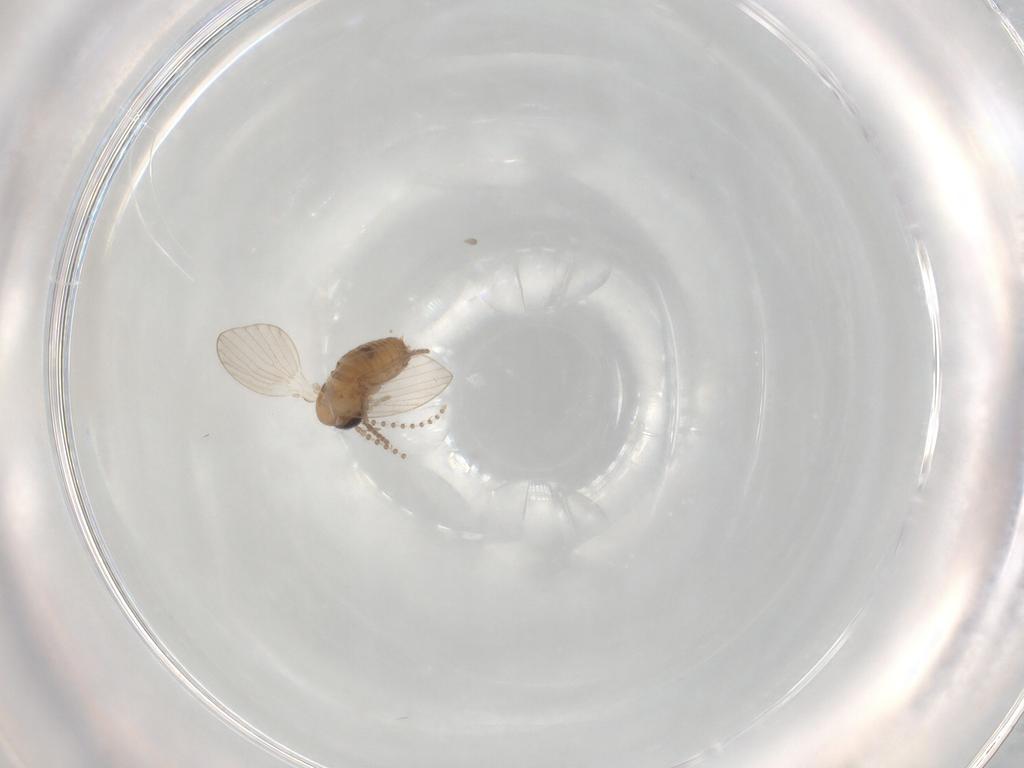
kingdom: Animalia
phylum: Arthropoda
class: Insecta
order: Diptera
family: Psychodidae
